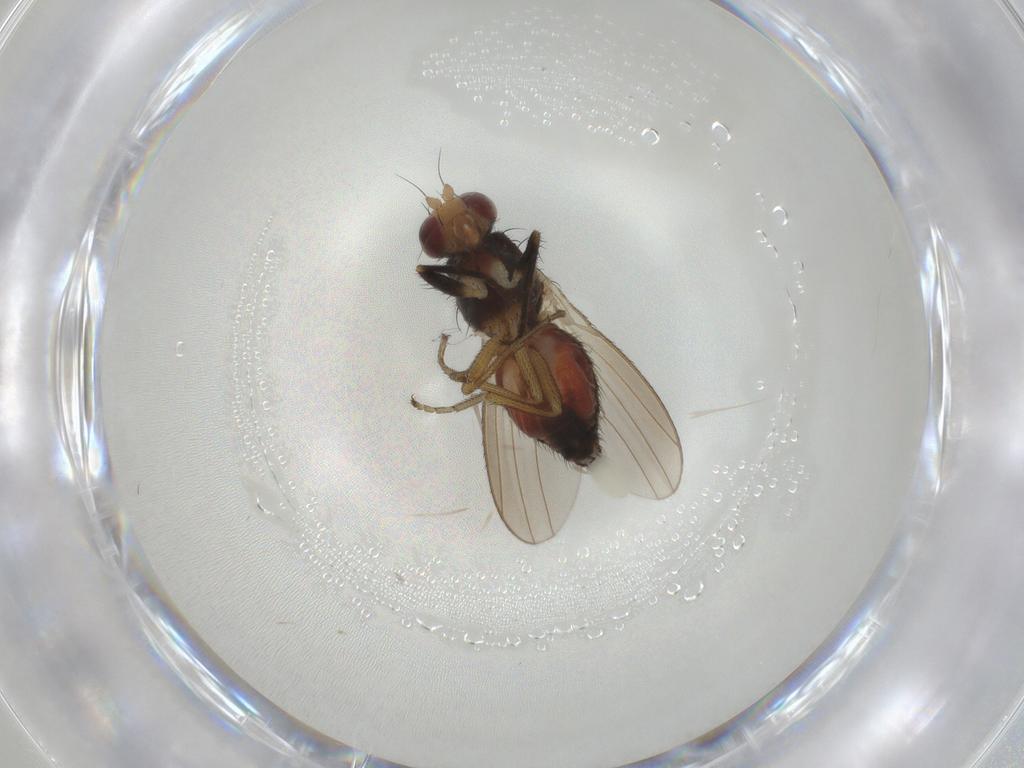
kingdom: Animalia
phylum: Arthropoda
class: Insecta
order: Diptera
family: Heleomyzidae
